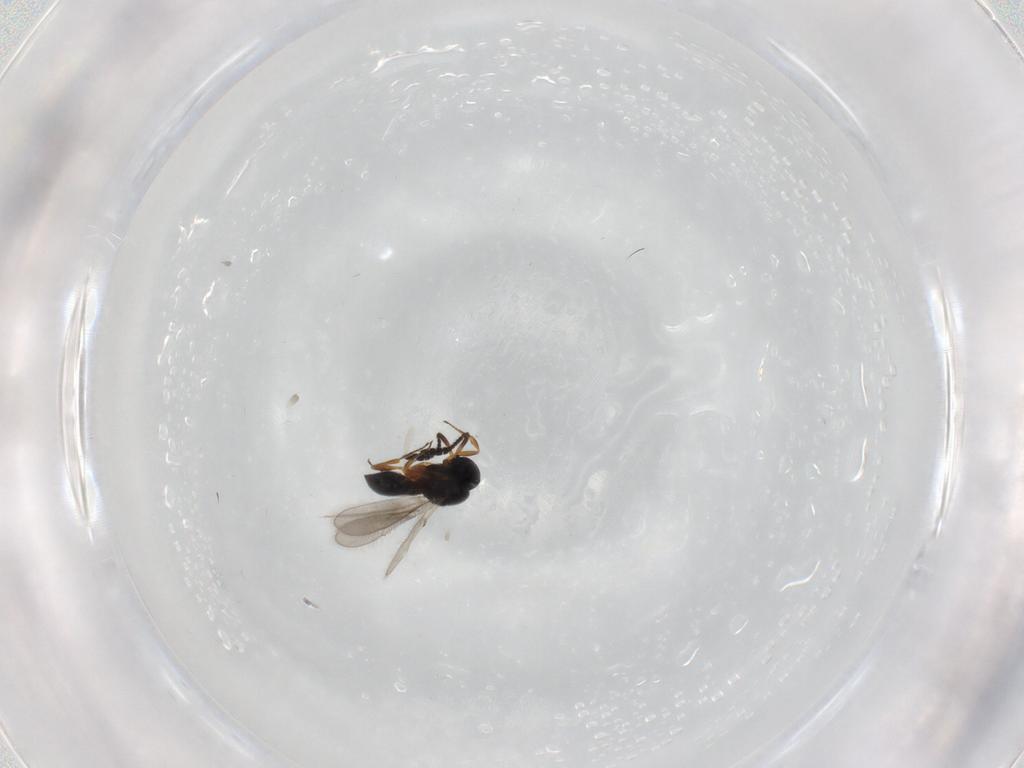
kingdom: Animalia
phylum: Arthropoda
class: Insecta
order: Hymenoptera
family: Scelionidae
